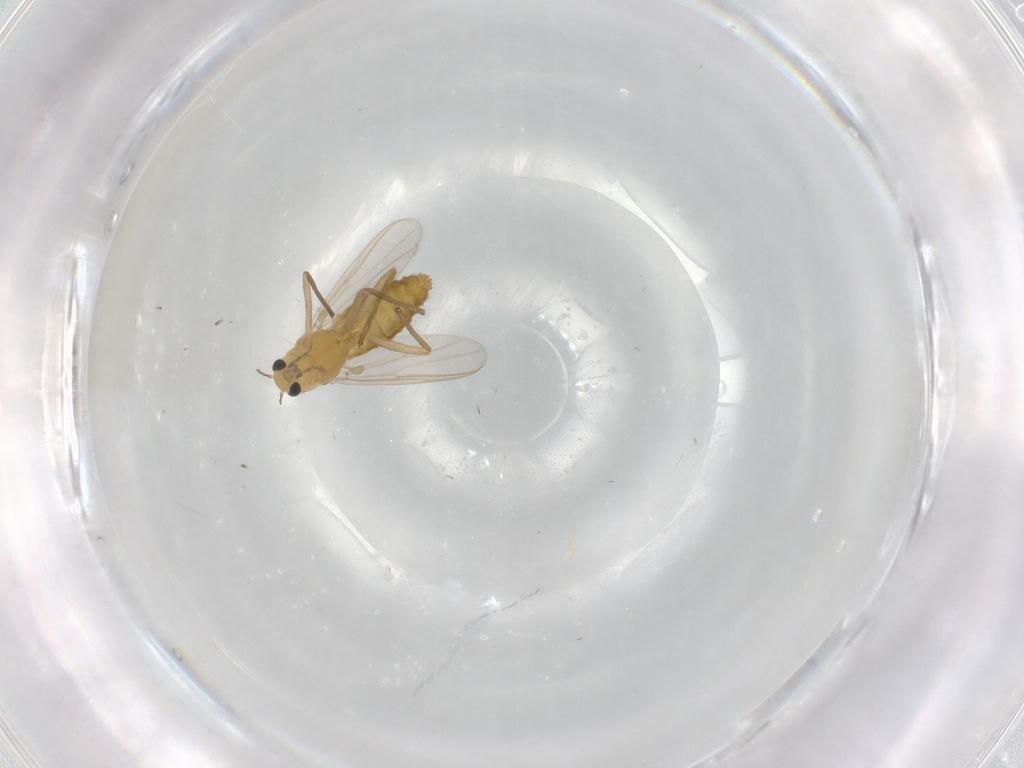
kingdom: Animalia
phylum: Arthropoda
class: Insecta
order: Diptera
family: Chironomidae
